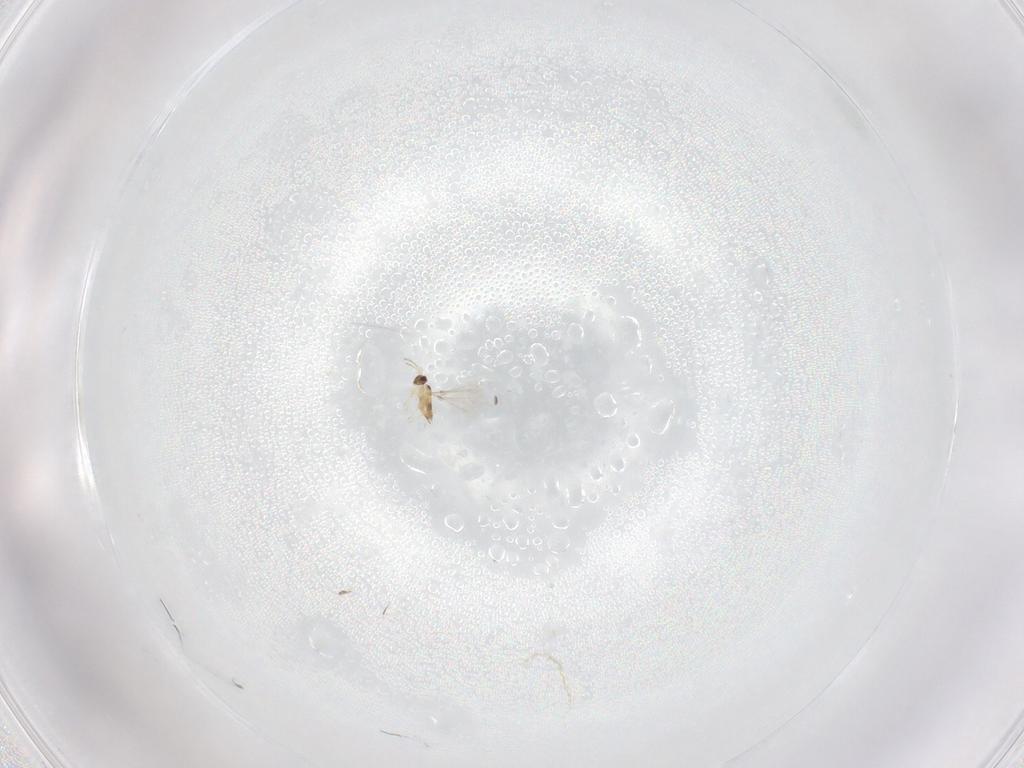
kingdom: Animalia
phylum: Arthropoda
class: Insecta
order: Hymenoptera
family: Mymaridae
